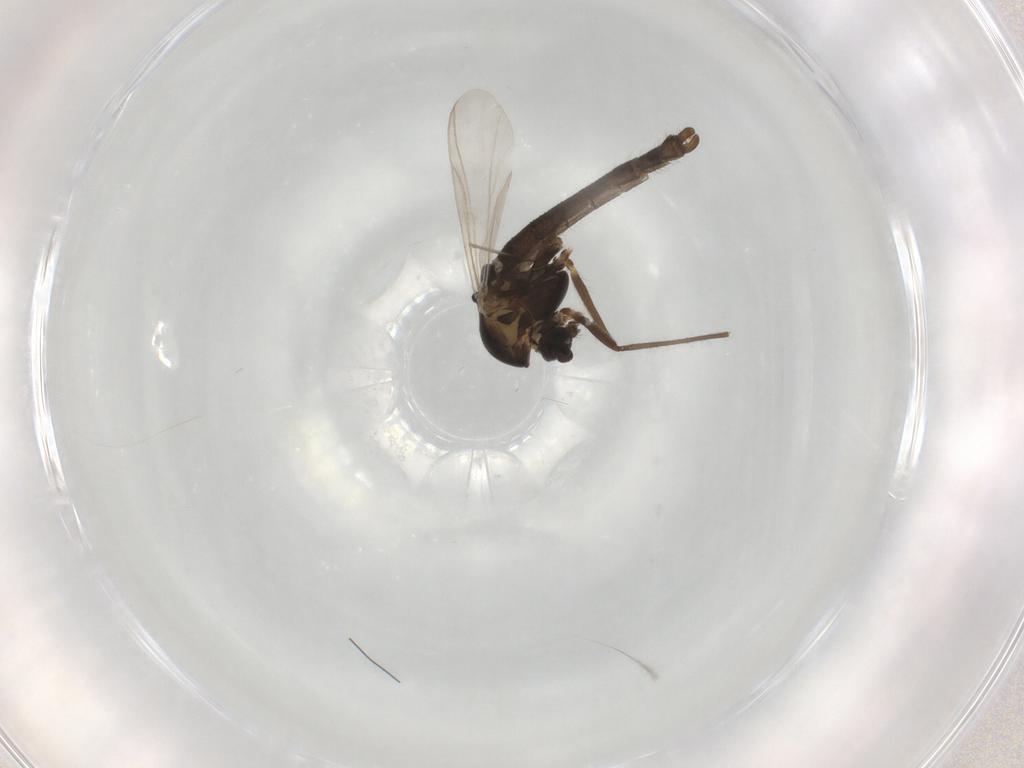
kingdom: Animalia
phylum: Arthropoda
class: Insecta
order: Diptera
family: Chironomidae
